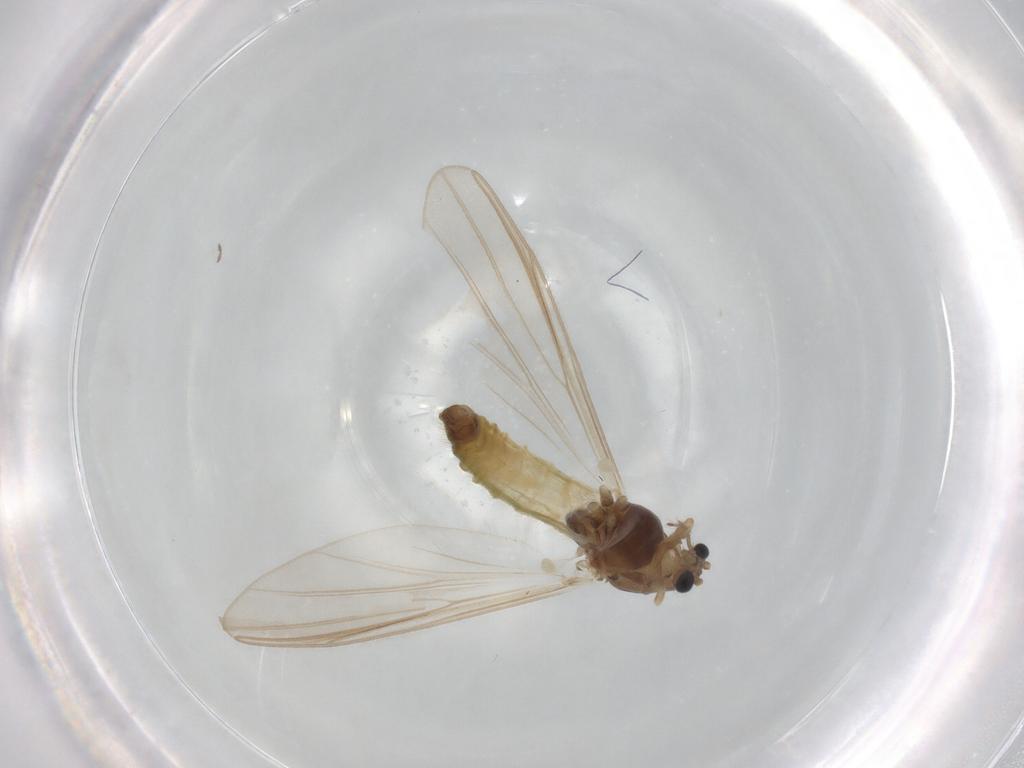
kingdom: Animalia
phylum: Arthropoda
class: Insecta
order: Diptera
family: Chironomidae
